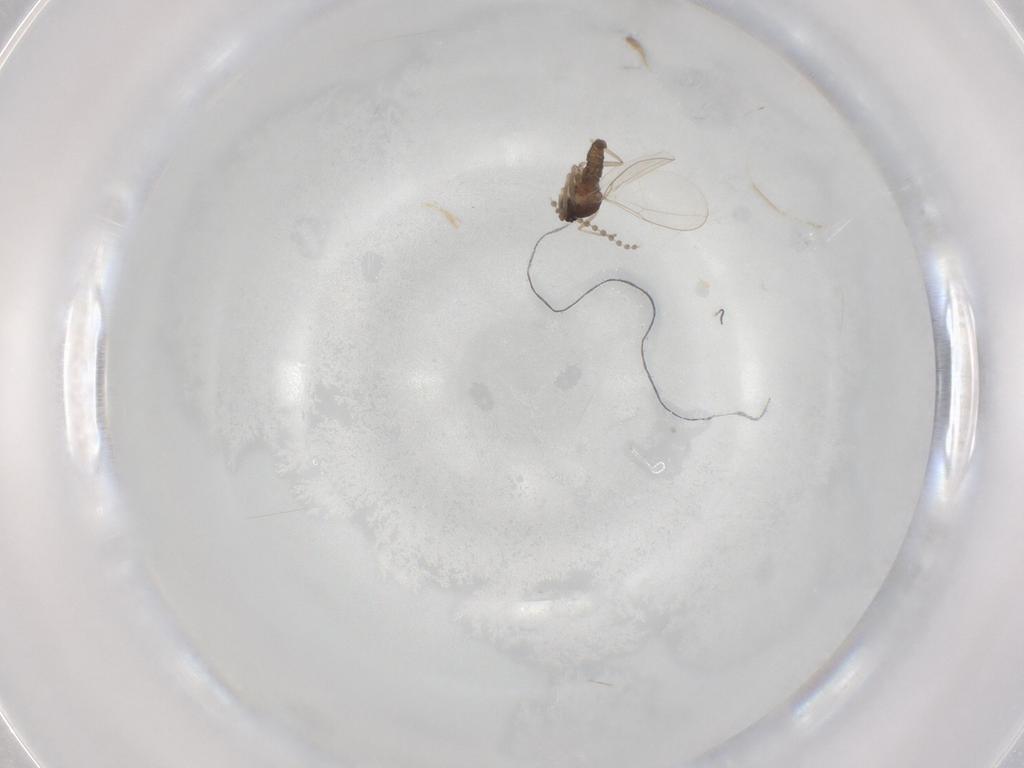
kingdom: Animalia
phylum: Arthropoda
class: Insecta
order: Diptera
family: Cecidomyiidae
